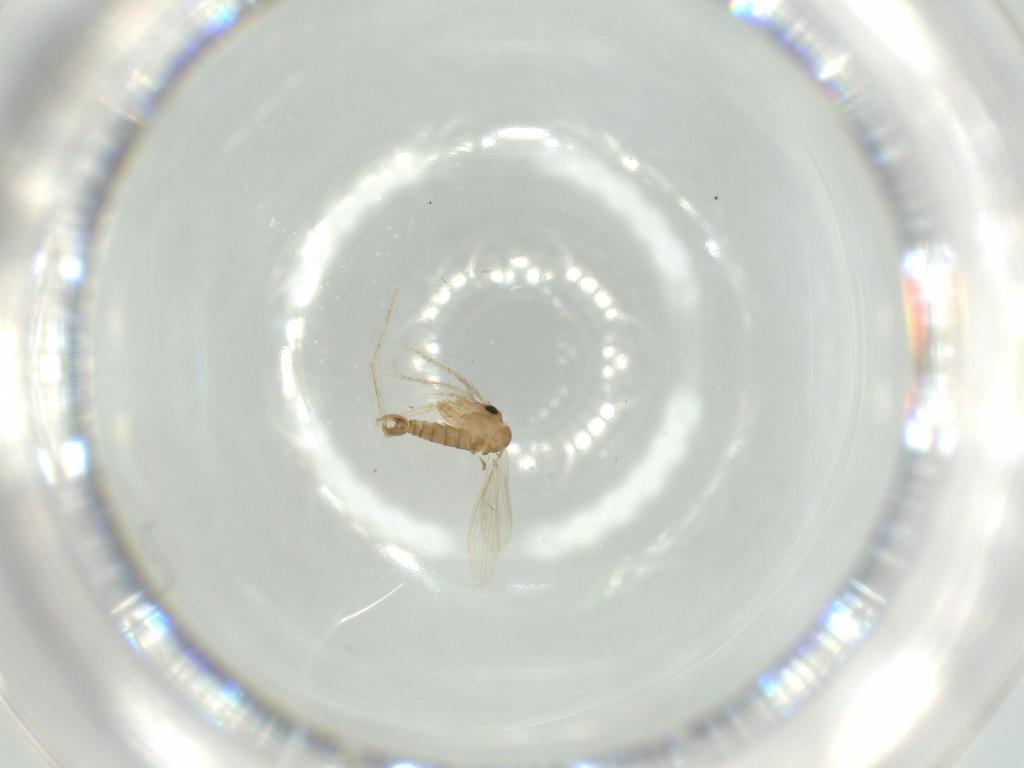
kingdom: Animalia
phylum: Arthropoda
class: Insecta
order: Diptera
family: Psychodidae
